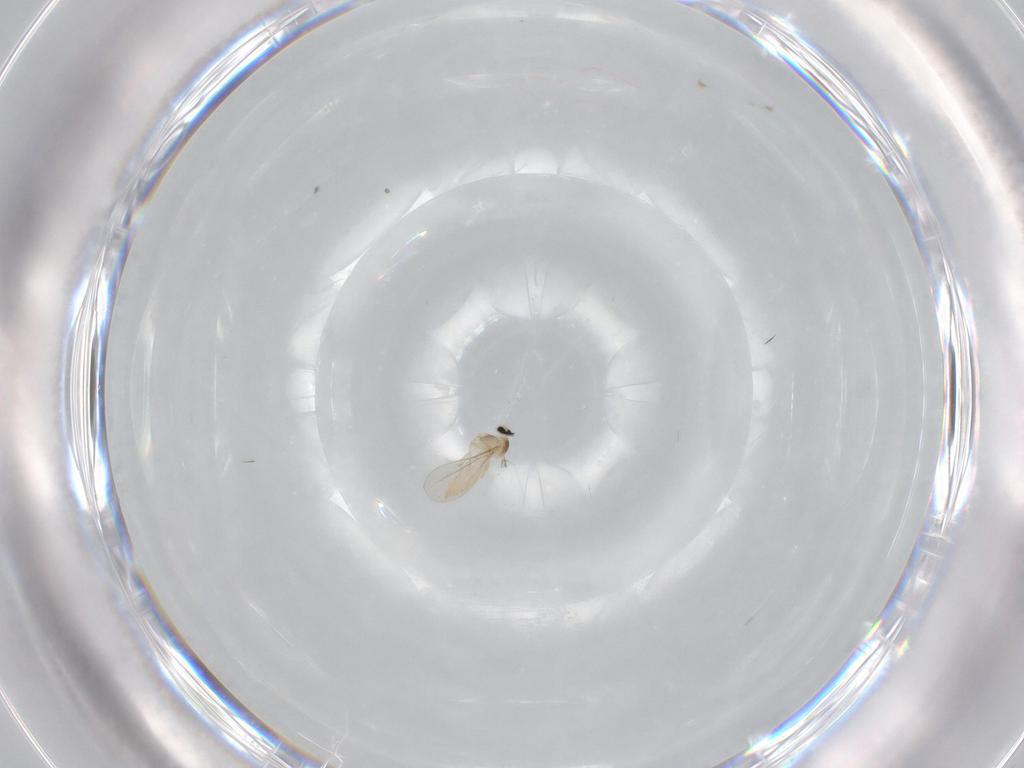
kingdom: Animalia
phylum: Arthropoda
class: Insecta
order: Diptera
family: Cecidomyiidae
